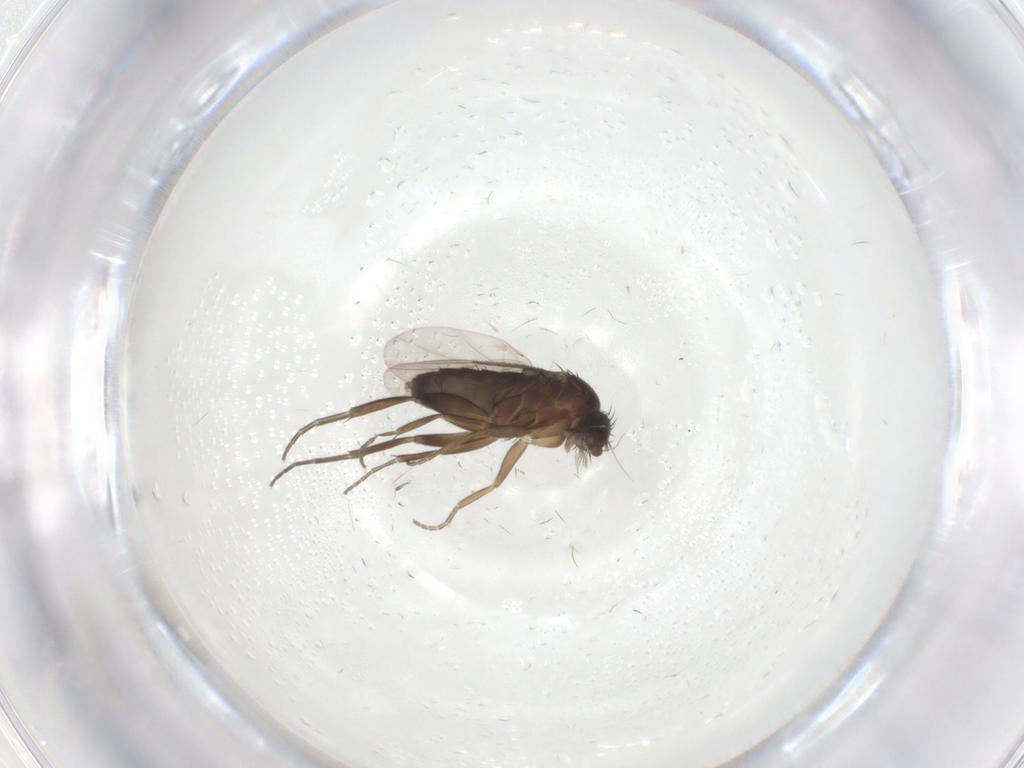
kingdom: Animalia
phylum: Arthropoda
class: Insecta
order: Diptera
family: Phoridae
